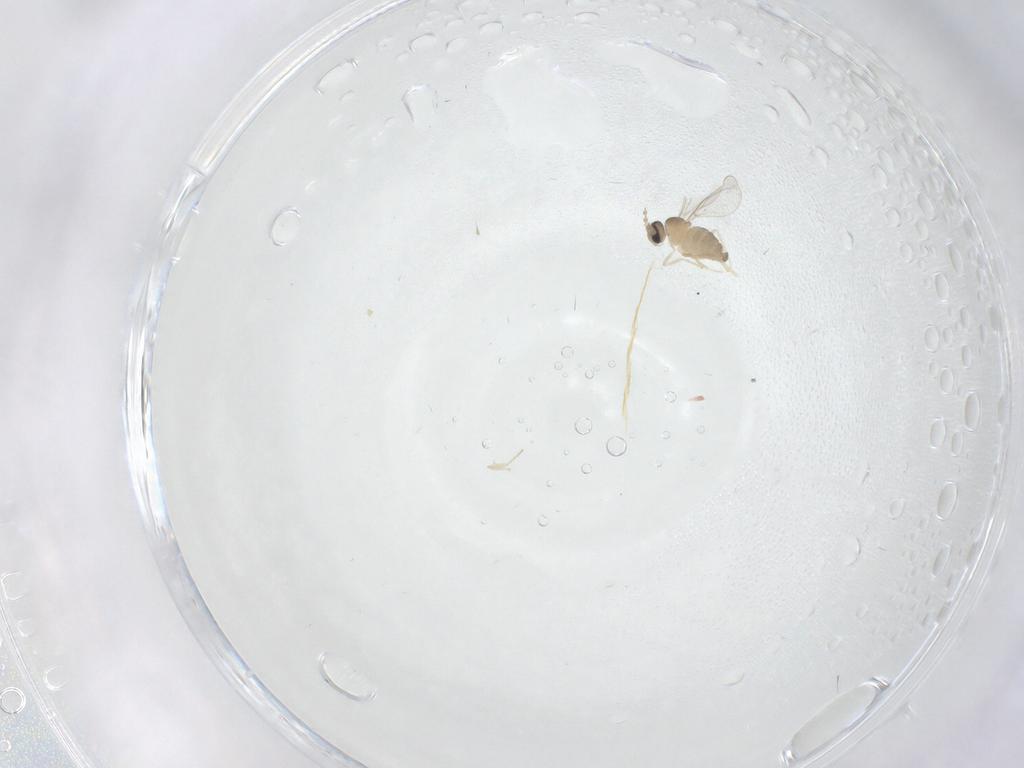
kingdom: Animalia
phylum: Arthropoda
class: Insecta
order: Diptera
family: Cecidomyiidae
